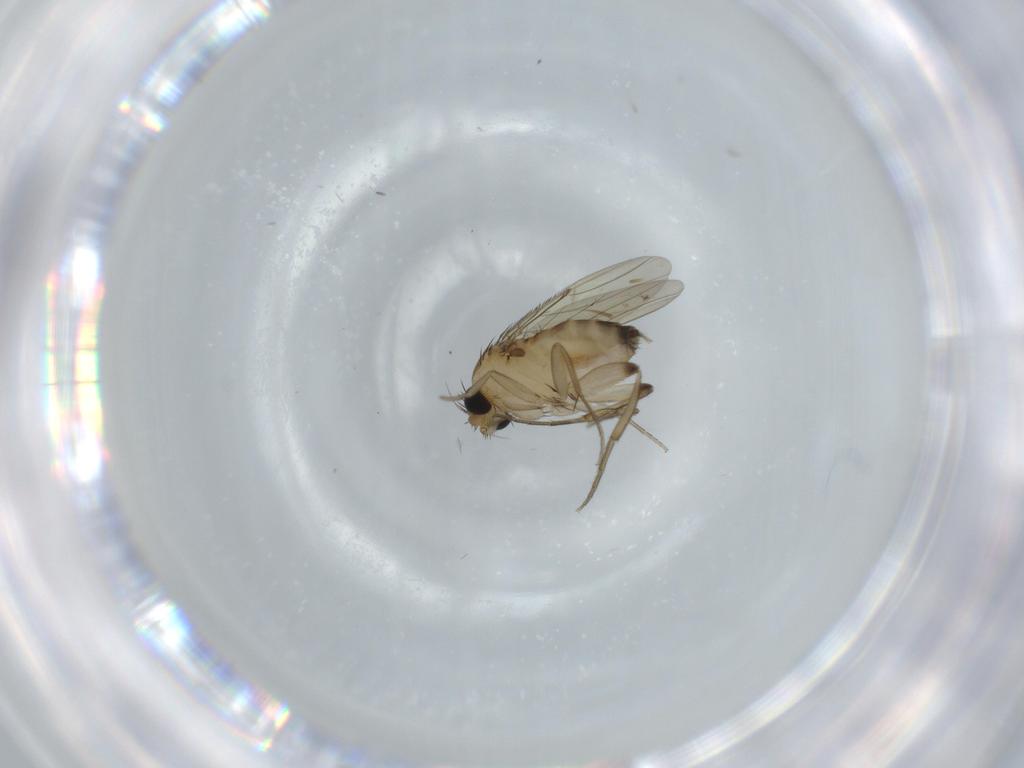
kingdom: Animalia
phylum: Arthropoda
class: Insecta
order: Diptera
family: Phoridae
